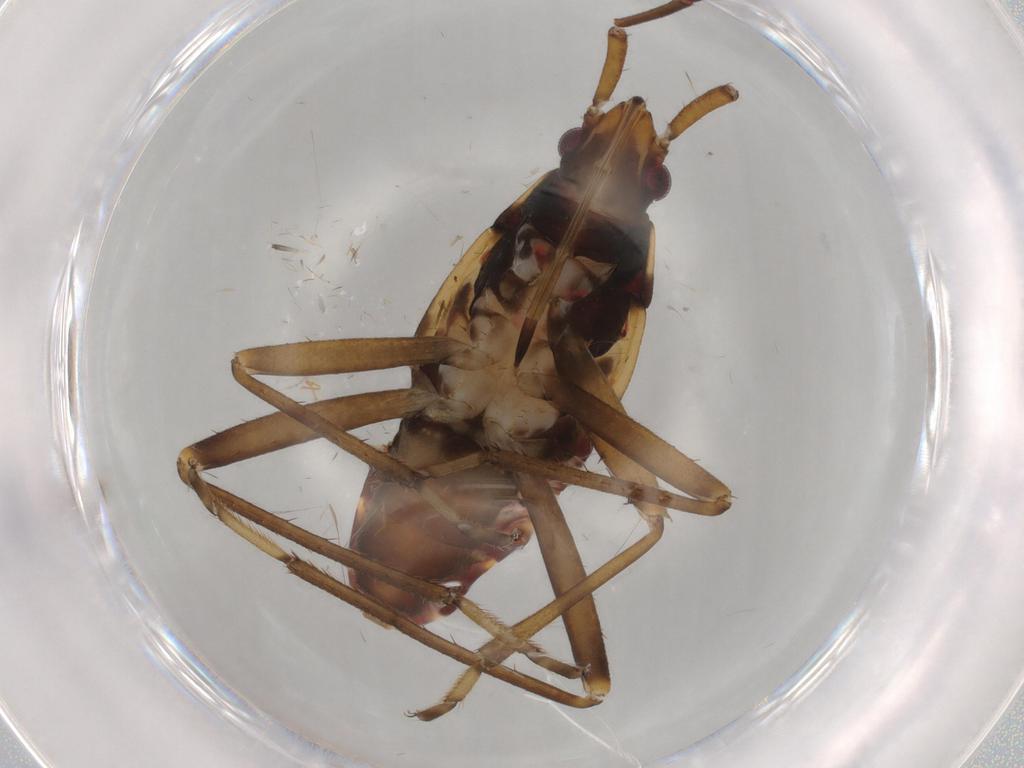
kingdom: Animalia
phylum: Arthropoda
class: Insecta
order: Hemiptera
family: Rhyparochromidae
